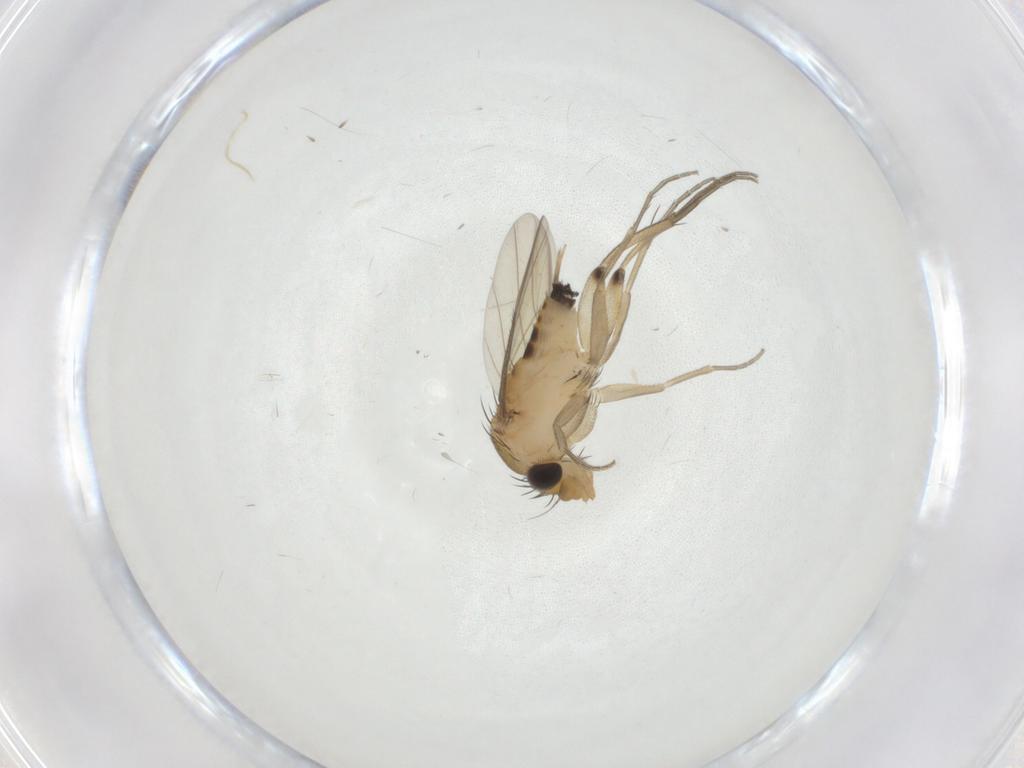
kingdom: Animalia
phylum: Arthropoda
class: Insecta
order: Diptera
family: Phoridae
